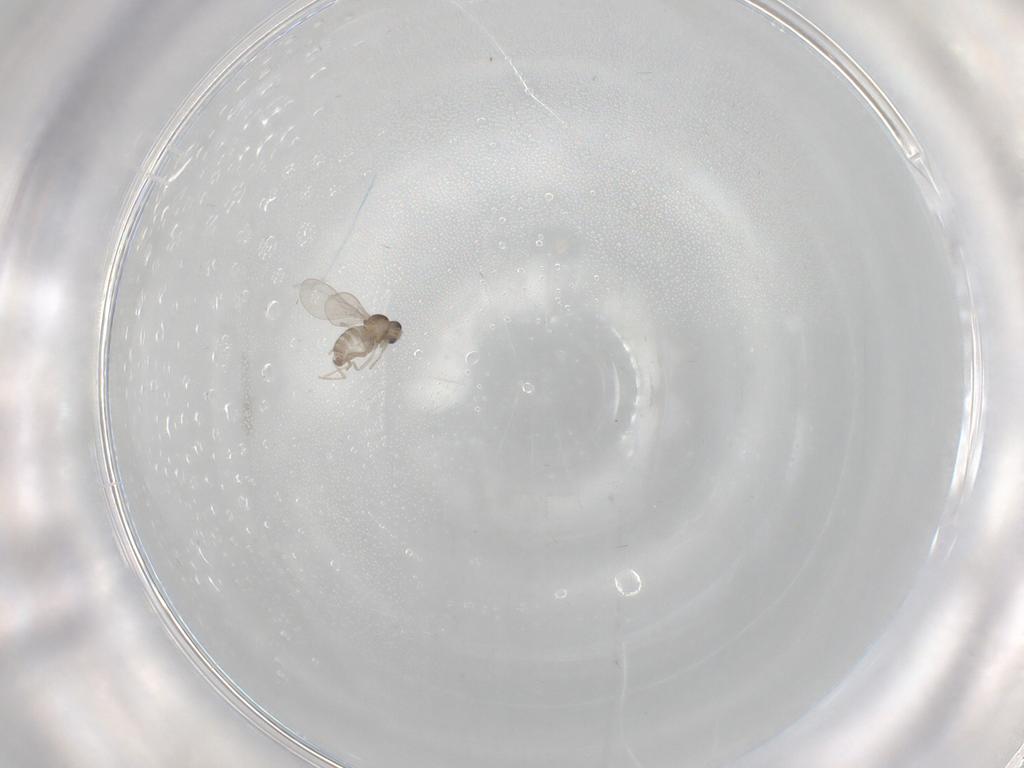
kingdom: Animalia
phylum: Arthropoda
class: Insecta
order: Diptera
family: Cecidomyiidae
